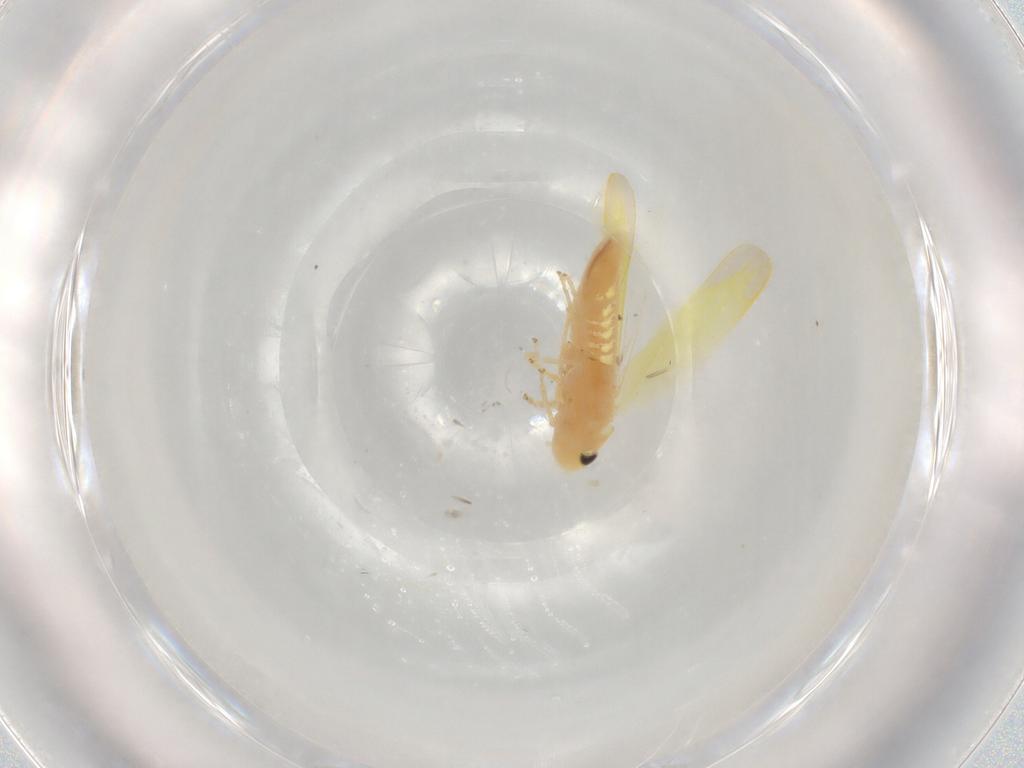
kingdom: Animalia
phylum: Arthropoda
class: Insecta
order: Hemiptera
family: Cicadellidae
